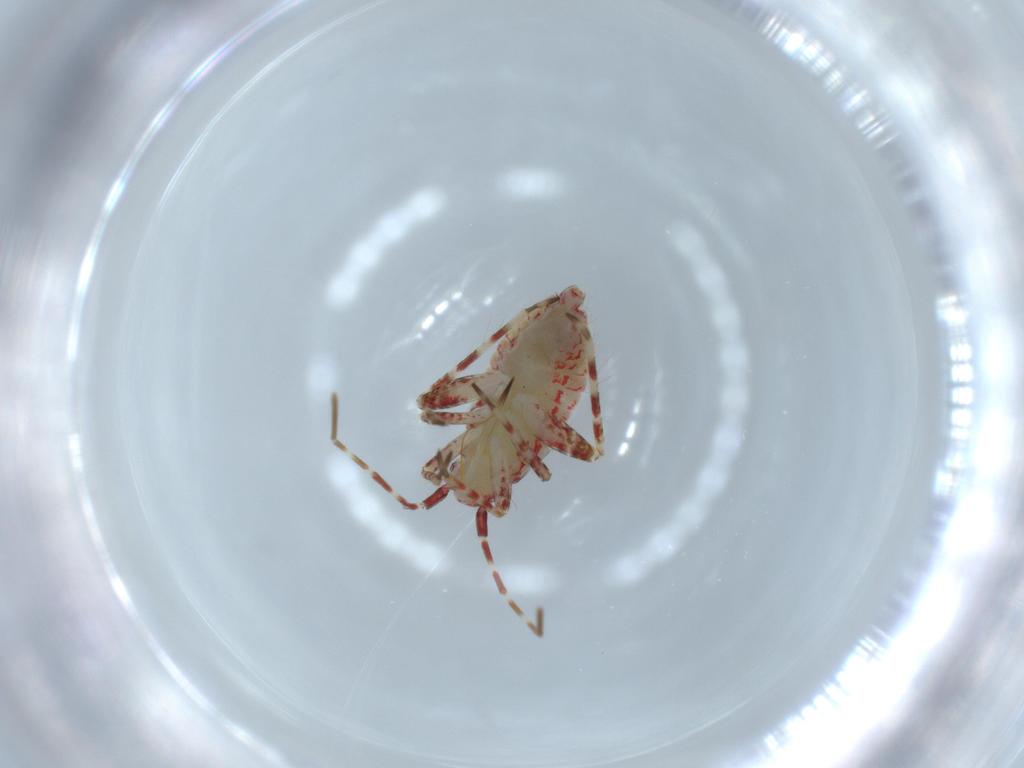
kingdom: Animalia
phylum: Arthropoda
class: Insecta
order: Hemiptera
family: Miridae
